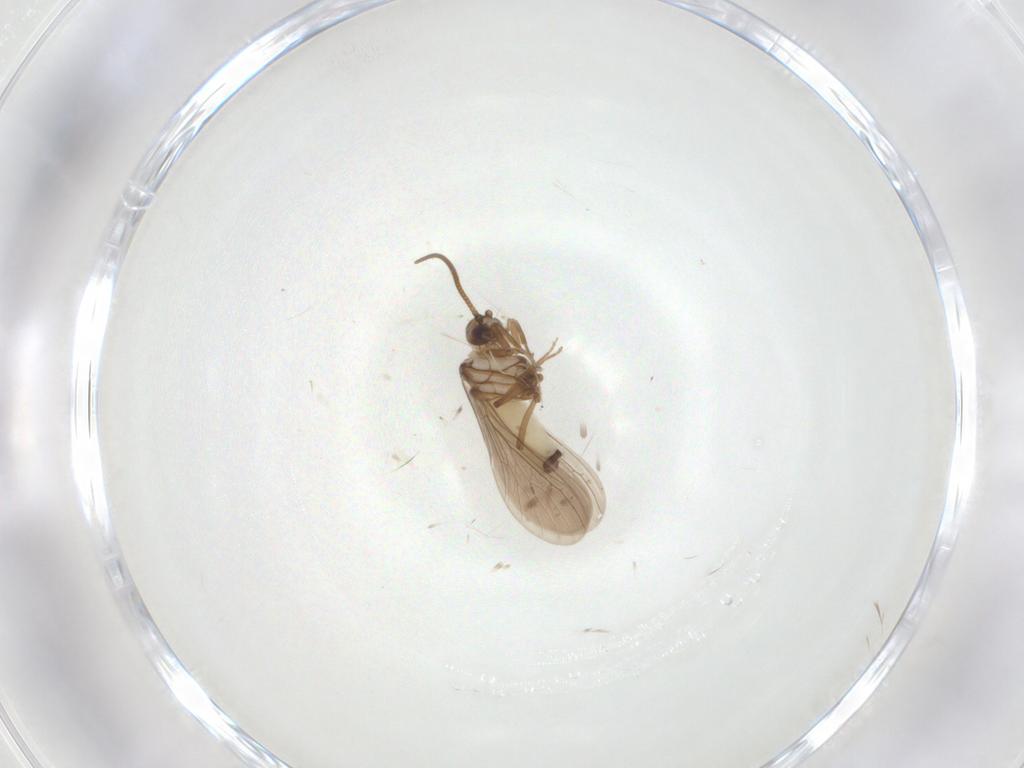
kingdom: Animalia
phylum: Arthropoda
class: Insecta
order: Neuroptera
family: Coniopterygidae
